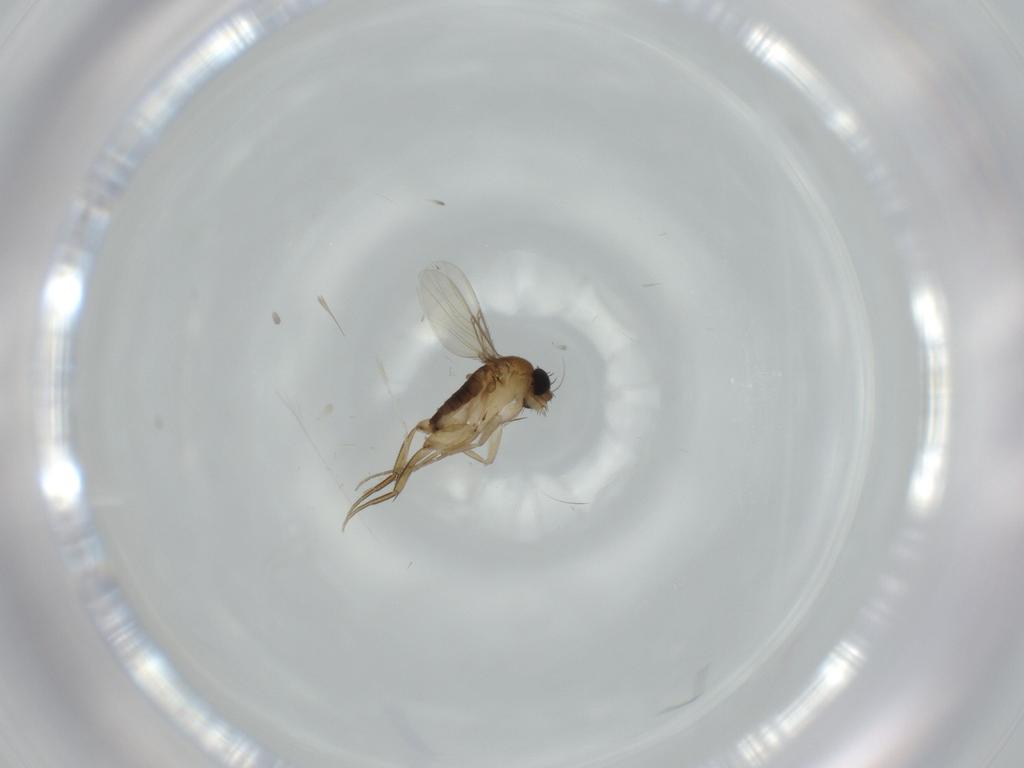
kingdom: Animalia
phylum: Arthropoda
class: Insecta
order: Diptera
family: Phoridae
